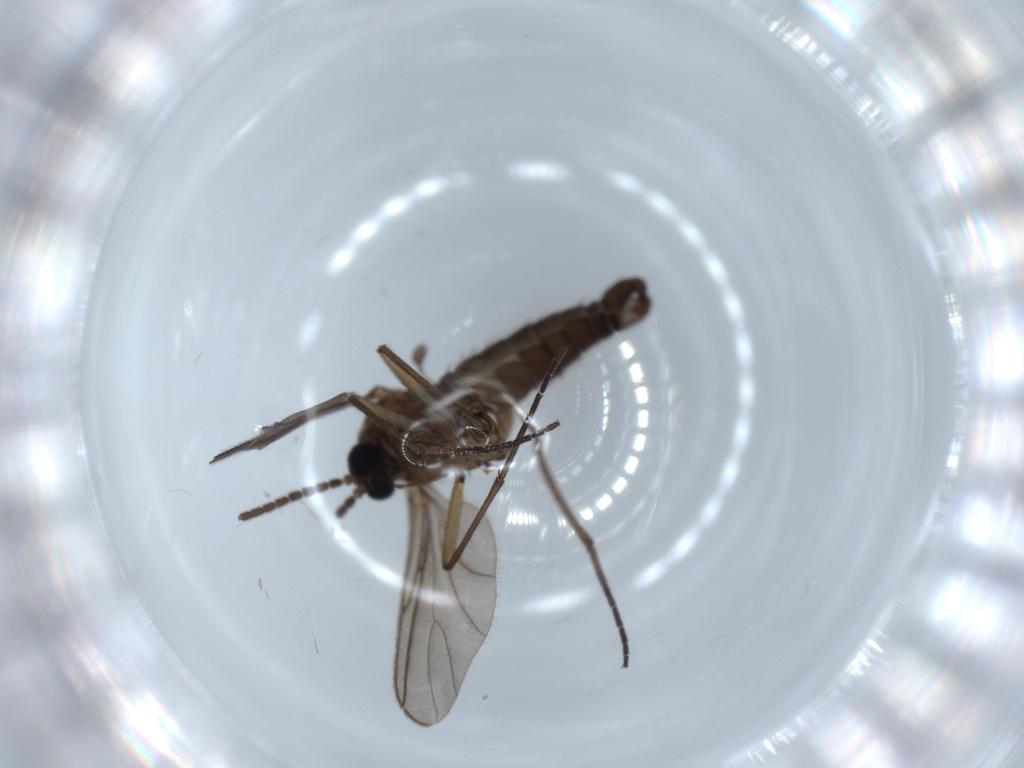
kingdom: Animalia
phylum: Arthropoda
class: Insecta
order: Diptera
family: Sciaridae
